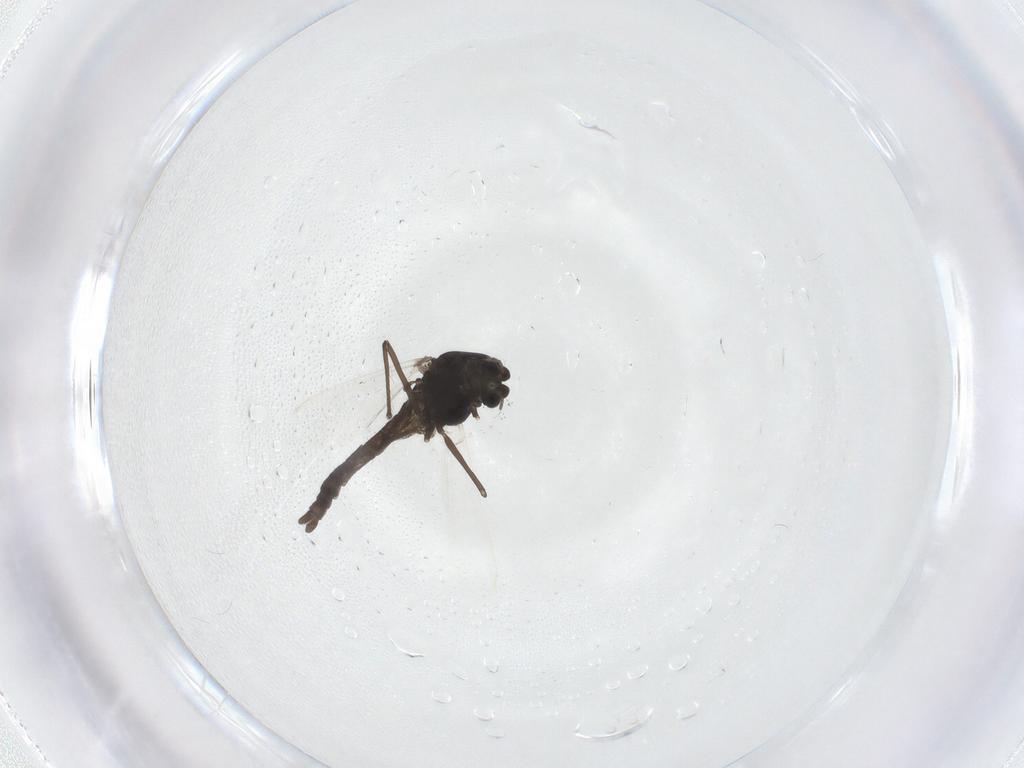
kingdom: Animalia
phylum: Arthropoda
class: Insecta
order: Diptera
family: Chironomidae
